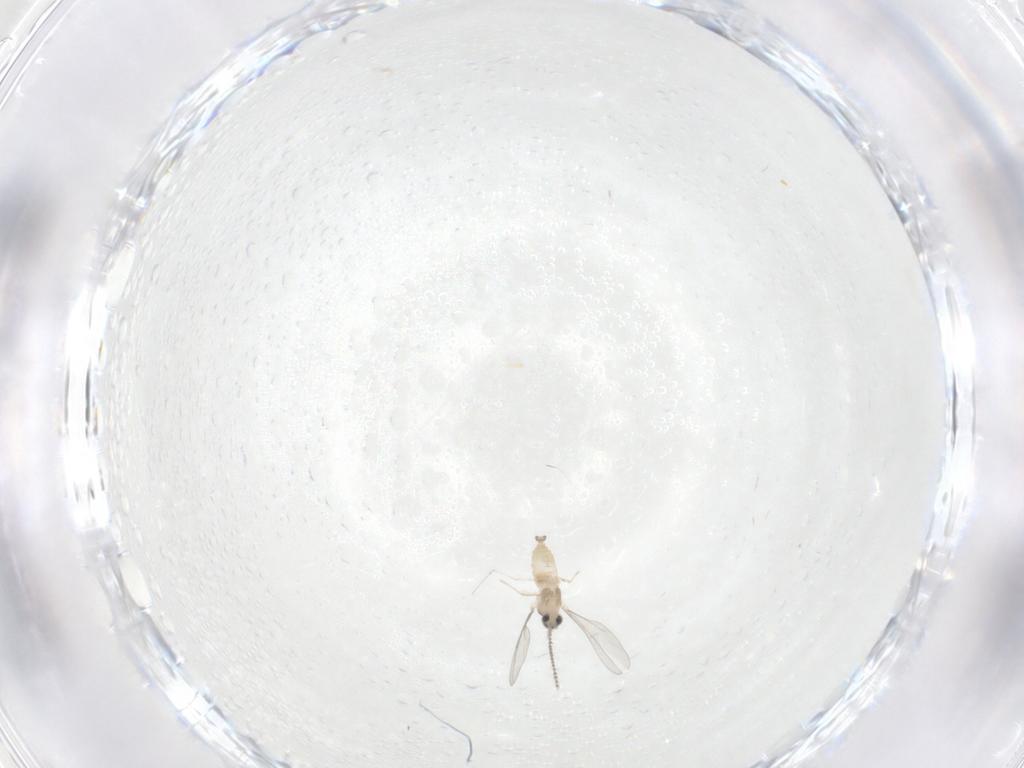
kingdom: Animalia
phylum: Arthropoda
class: Insecta
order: Diptera
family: Cecidomyiidae
